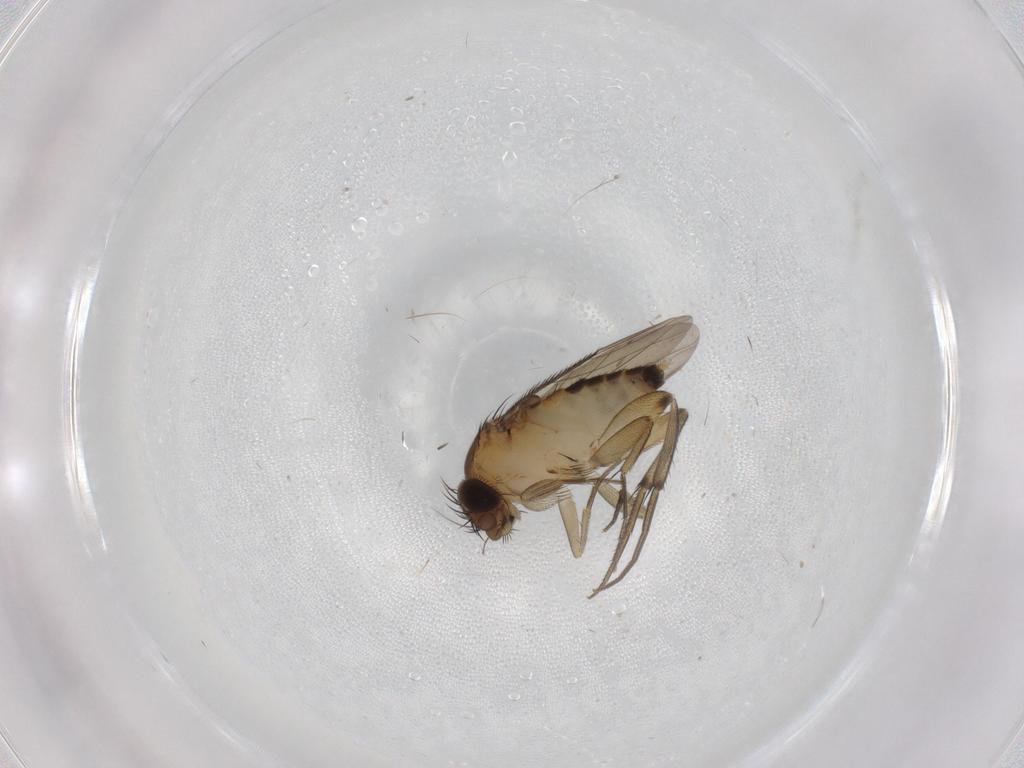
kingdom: Animalia
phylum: Arthropoda
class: Insecta
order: Diptera
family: Phoridae
